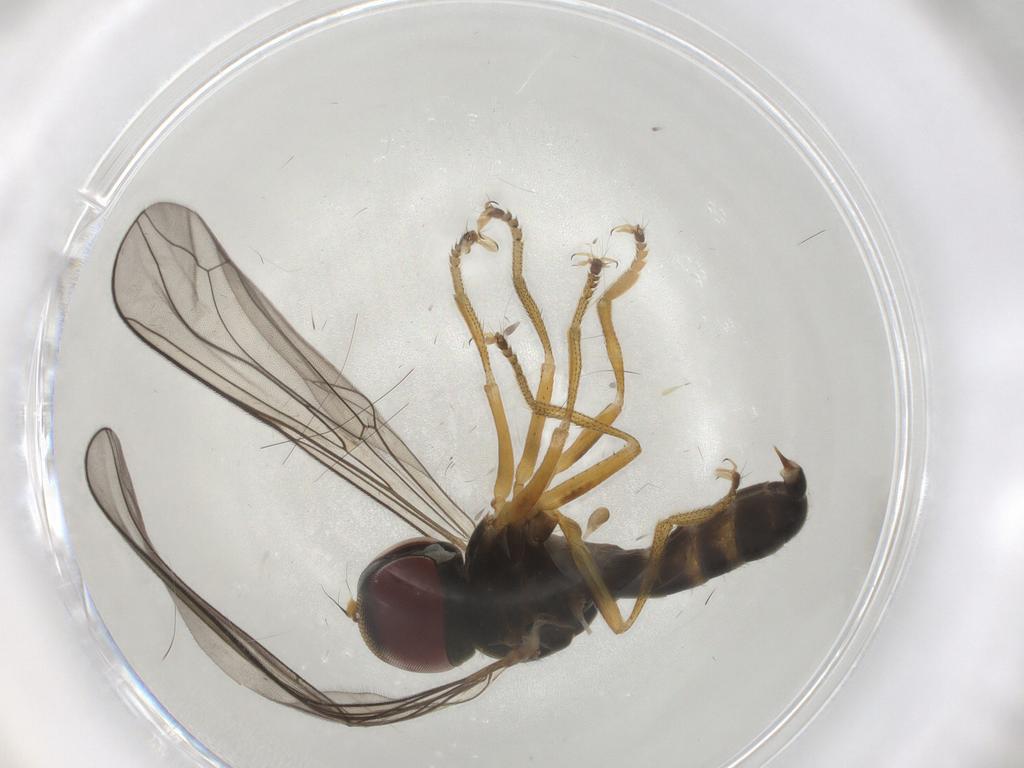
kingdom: Animalia
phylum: Arthropoda
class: Insecta
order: Diptera
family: Pipunculidae
